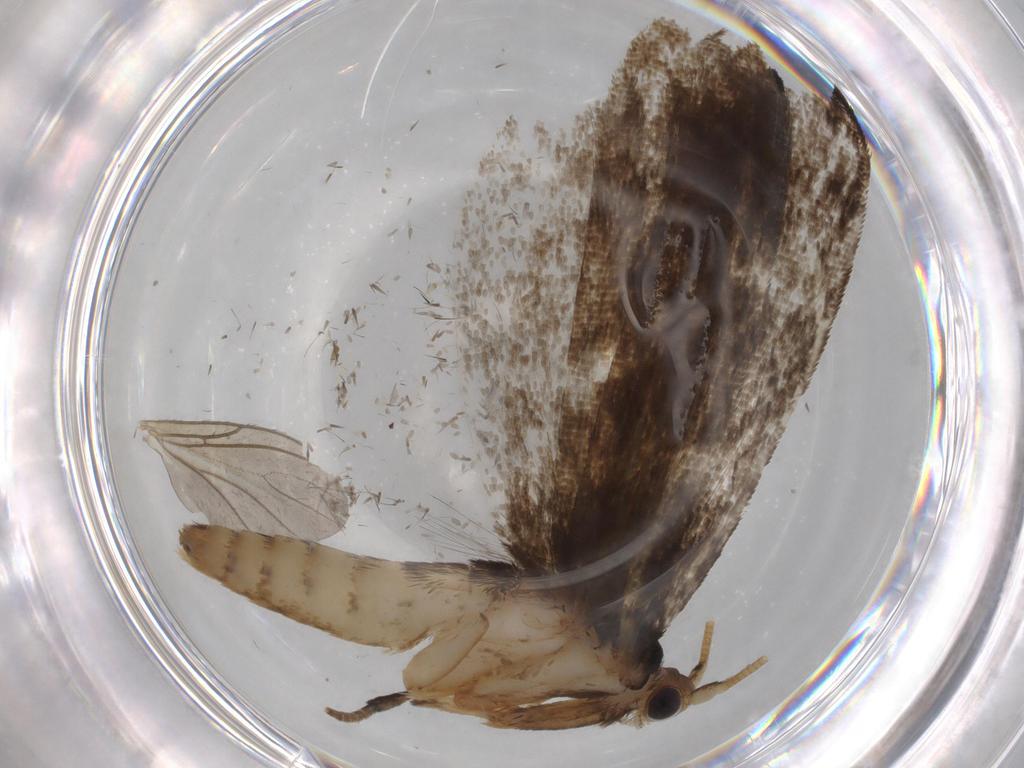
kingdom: Animalia
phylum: Arthropoda
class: Insecta
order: Lepidoptera
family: Tineidae
